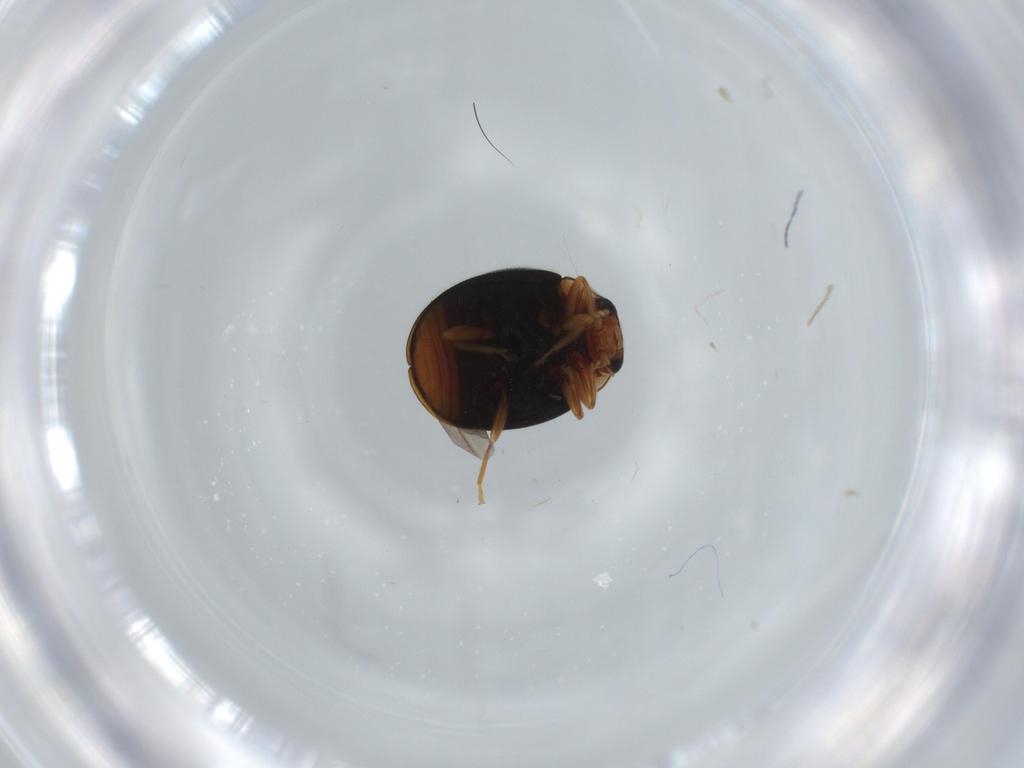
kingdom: Animalia
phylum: Arthropoda
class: Insecta
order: Coleoptera
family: Coccinellidae
